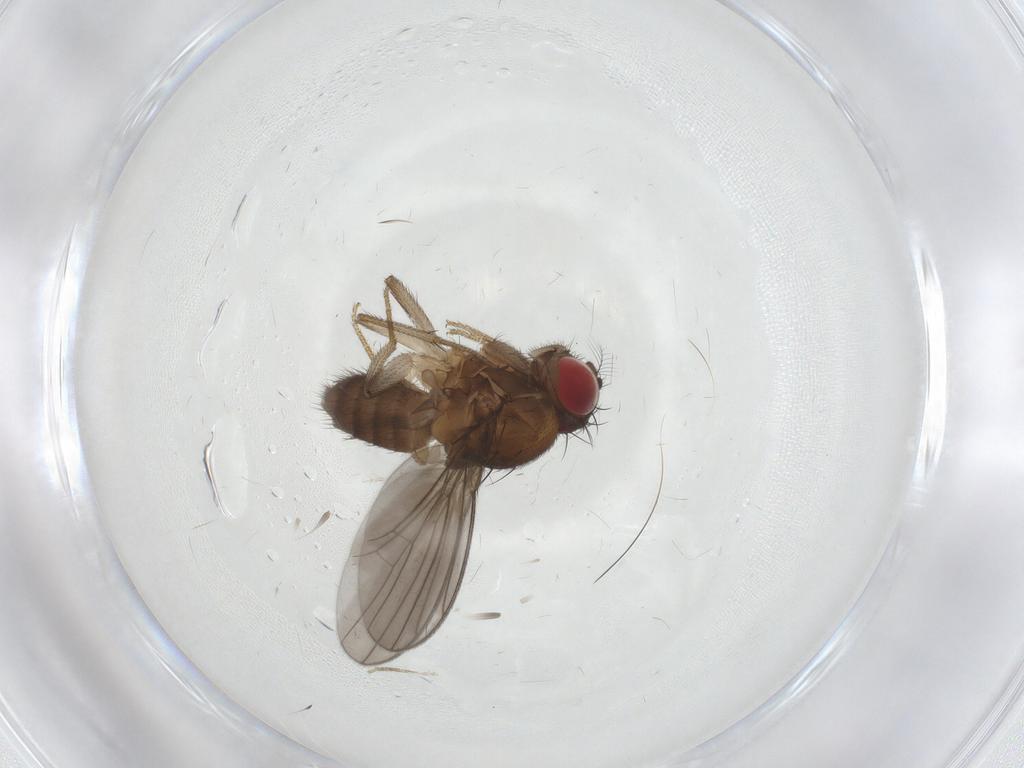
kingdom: Animalia
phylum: Arthropoda
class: Insecta
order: Diptera
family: Drosophilidae
